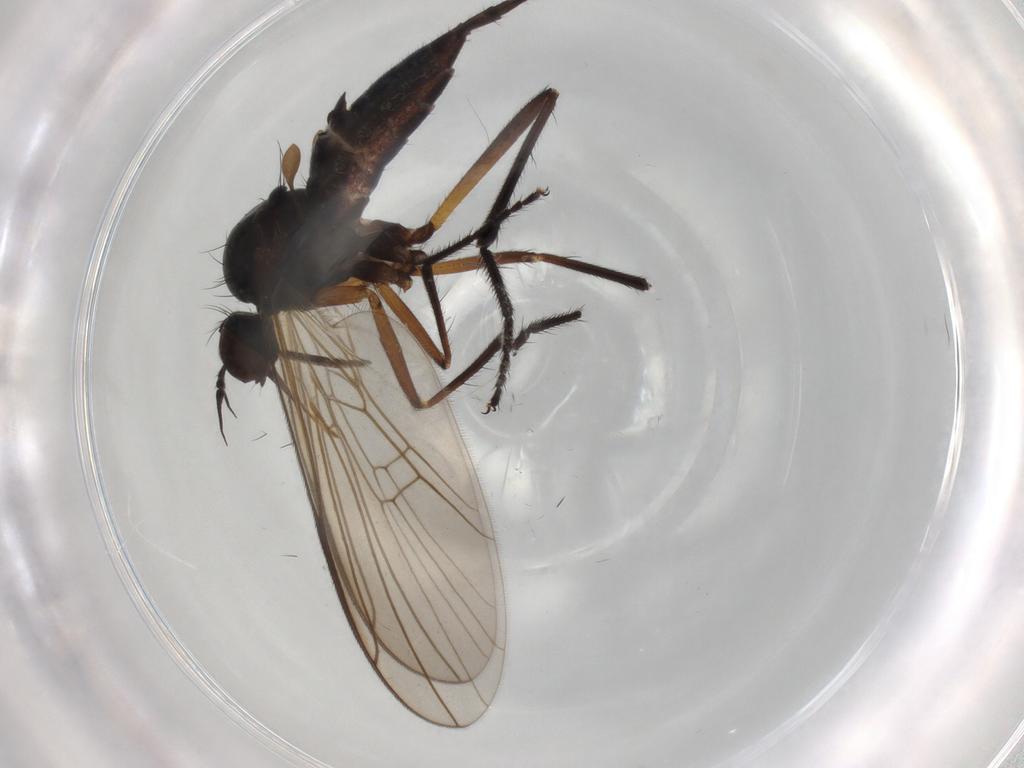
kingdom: Animalia
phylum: Arthropoda
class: Insecta
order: Diptera
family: Empididae
